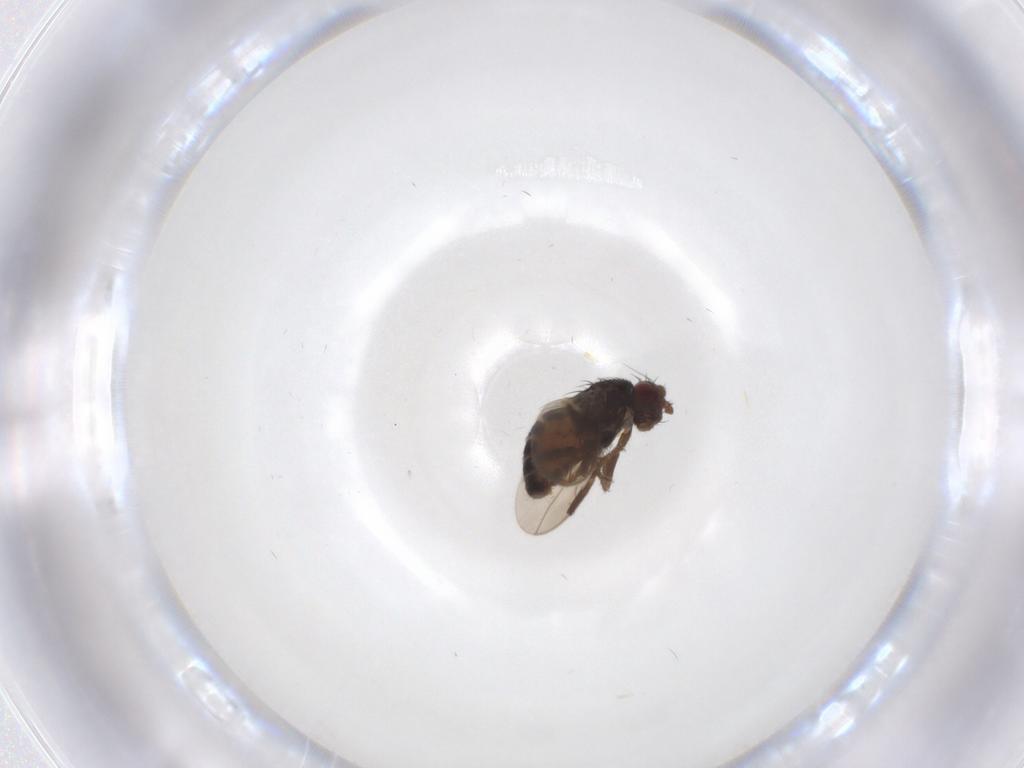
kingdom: Animalia
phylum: Arthropoda
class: Insecta
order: Diptera
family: Sphaeroceridae
